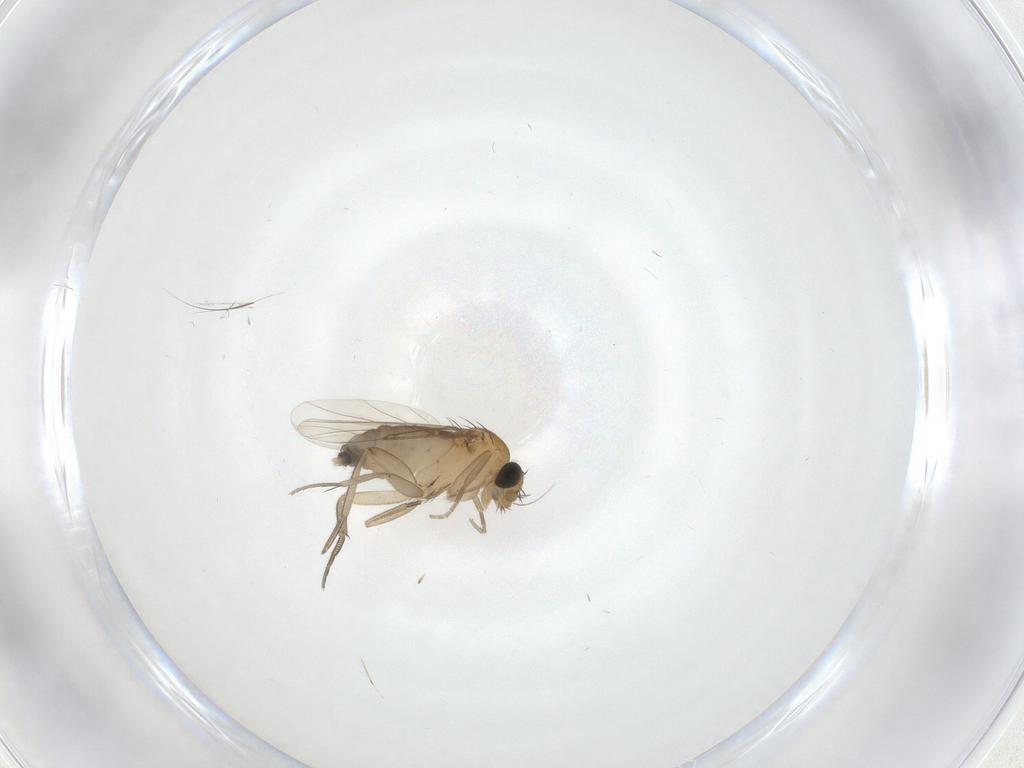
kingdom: Animalia
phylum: Arthropoda
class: Insecta
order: Diptera
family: Phoridae
